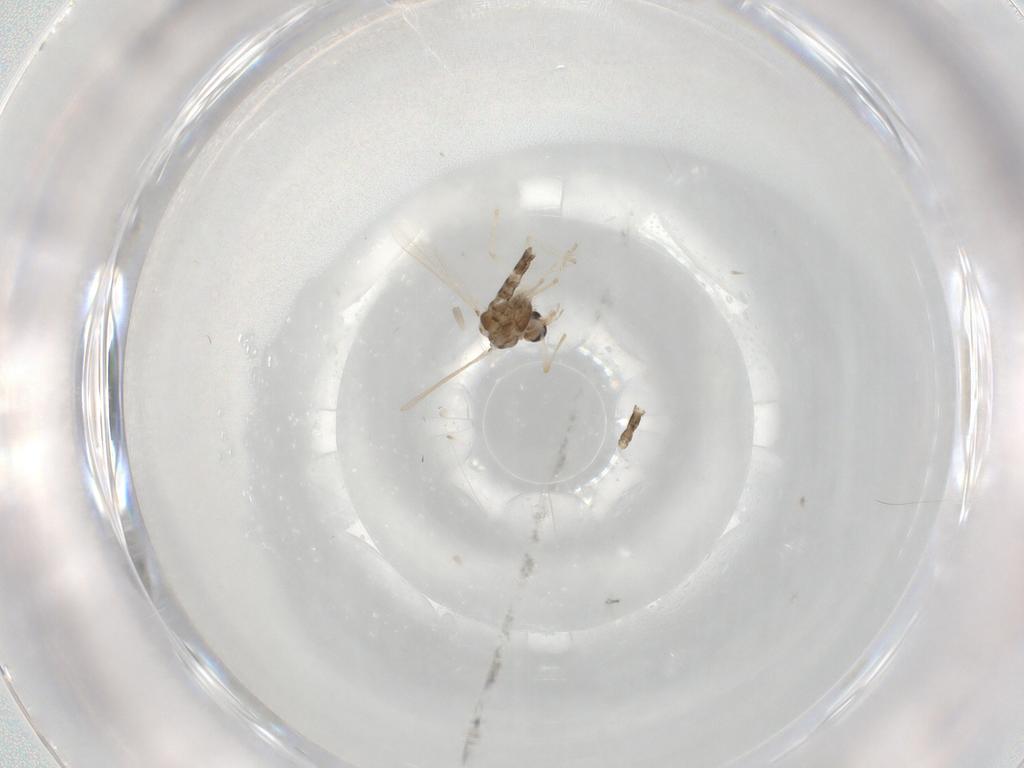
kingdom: Animalia
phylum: Arthropoda
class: Insecta
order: Diptera
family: Chironomidae
